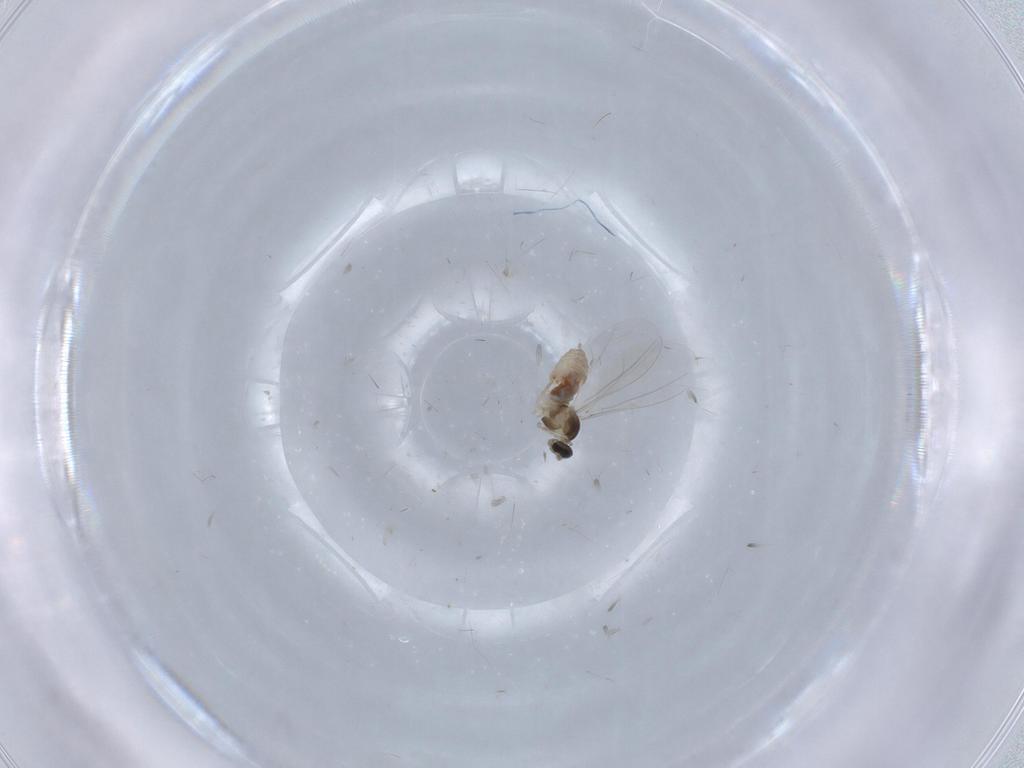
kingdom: Animalia
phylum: Arthropoda
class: Insecta
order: Diptera
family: Cecidomyiidae
